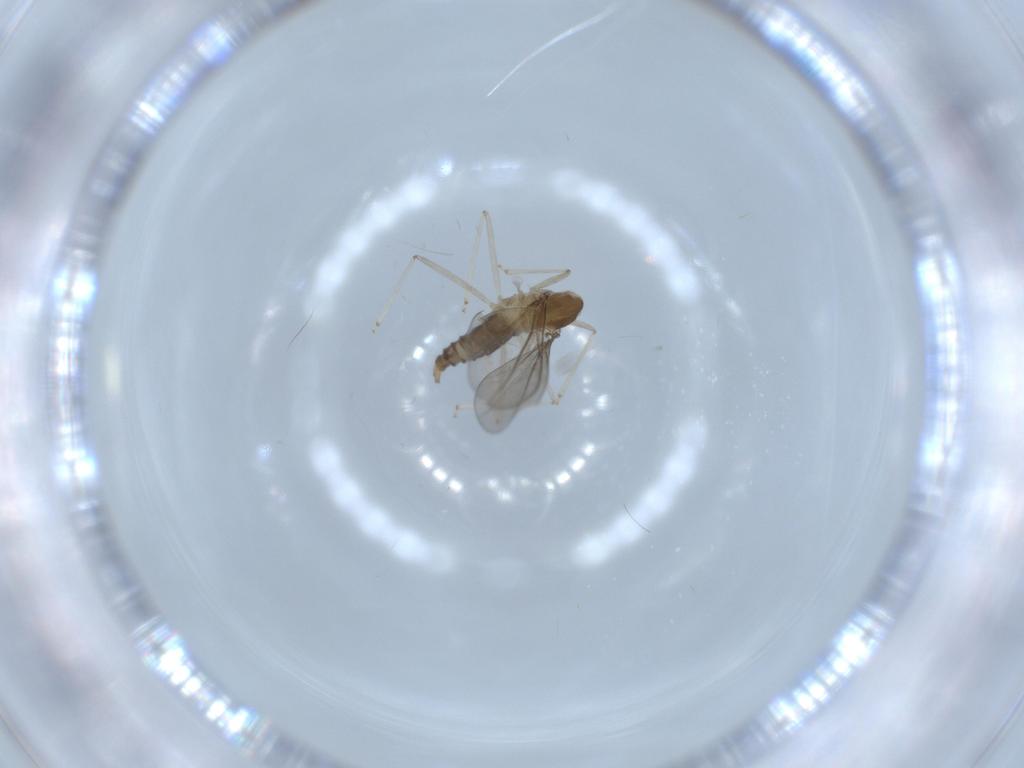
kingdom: Animalia
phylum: Arthropoda
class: Insecta
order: Diptera
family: Cecidomyiidae
